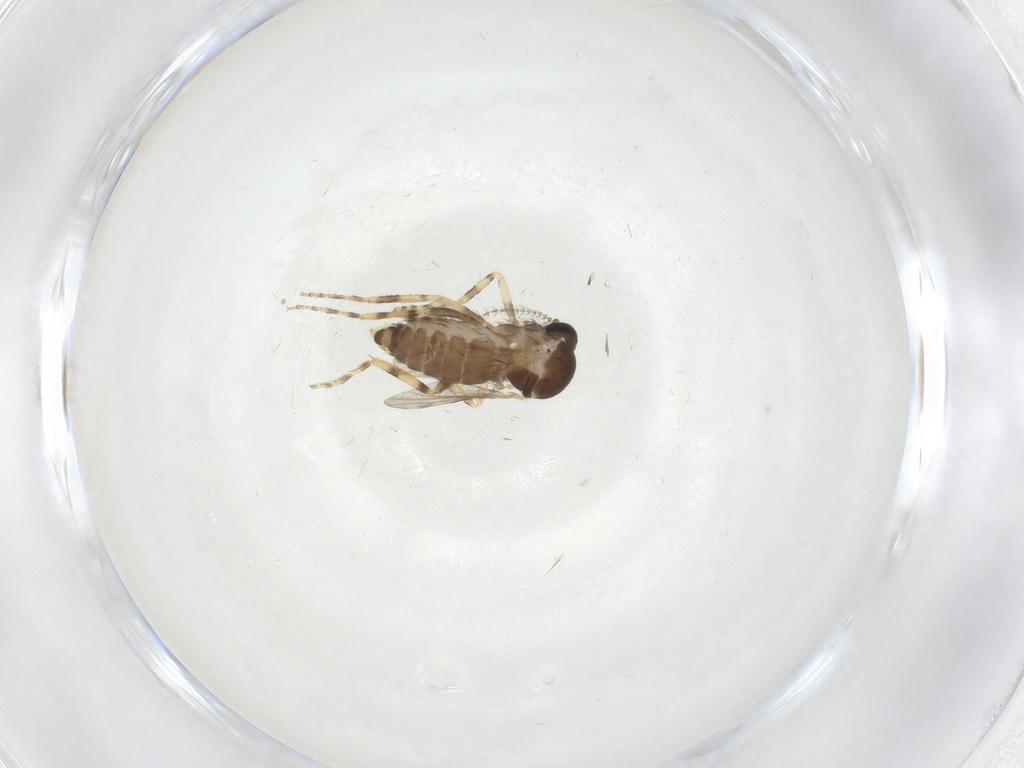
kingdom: Animalia
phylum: Arthropoda
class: Insecta
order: Diptera
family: Ceratopogonidae
